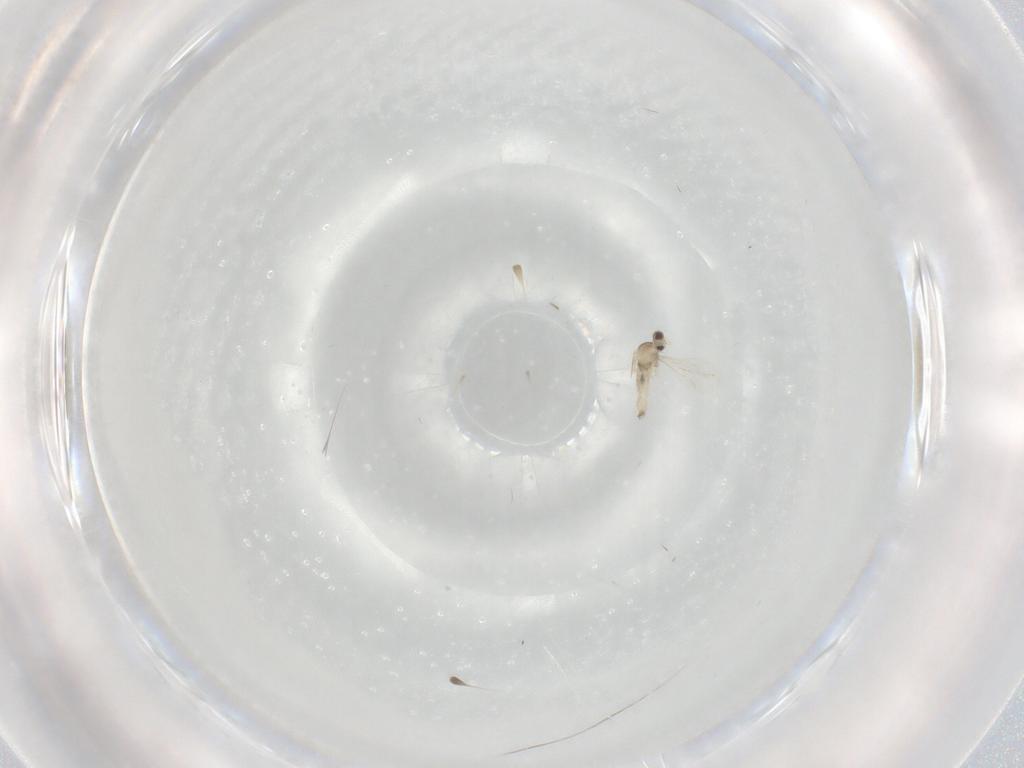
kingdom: Animalia
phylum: Arthropoda
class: Insecta
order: Diptera
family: Cecidomyiidae
